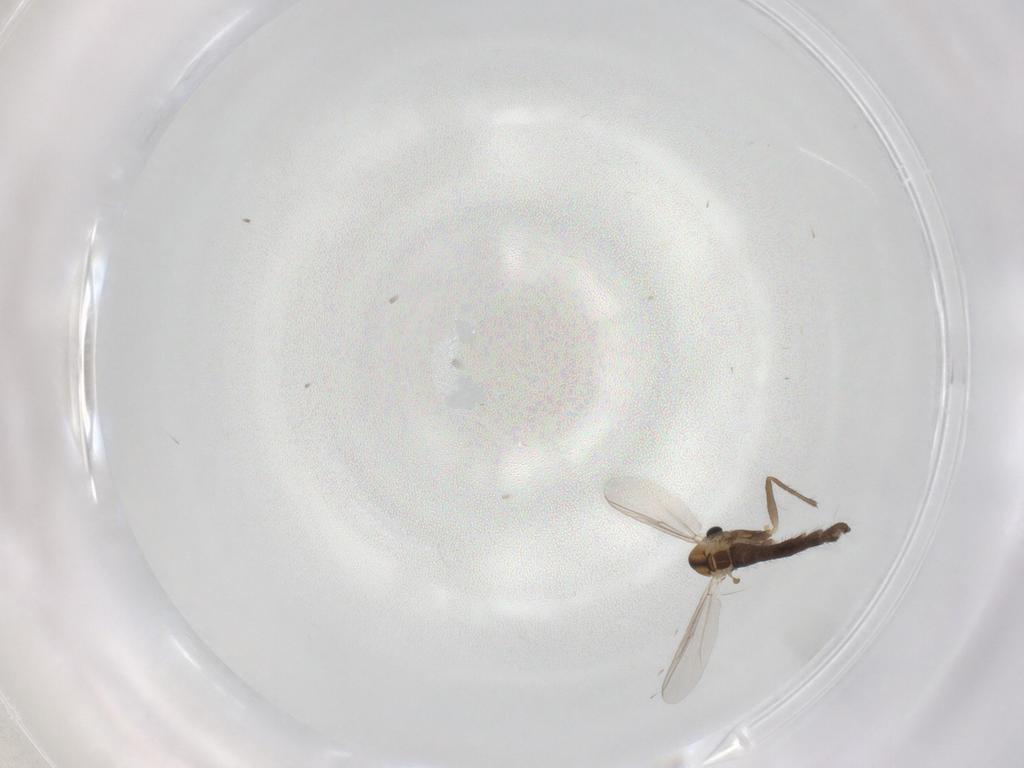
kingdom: Animalia
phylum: Arthropoda
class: Insecta
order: Diptera
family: Chironomidae
